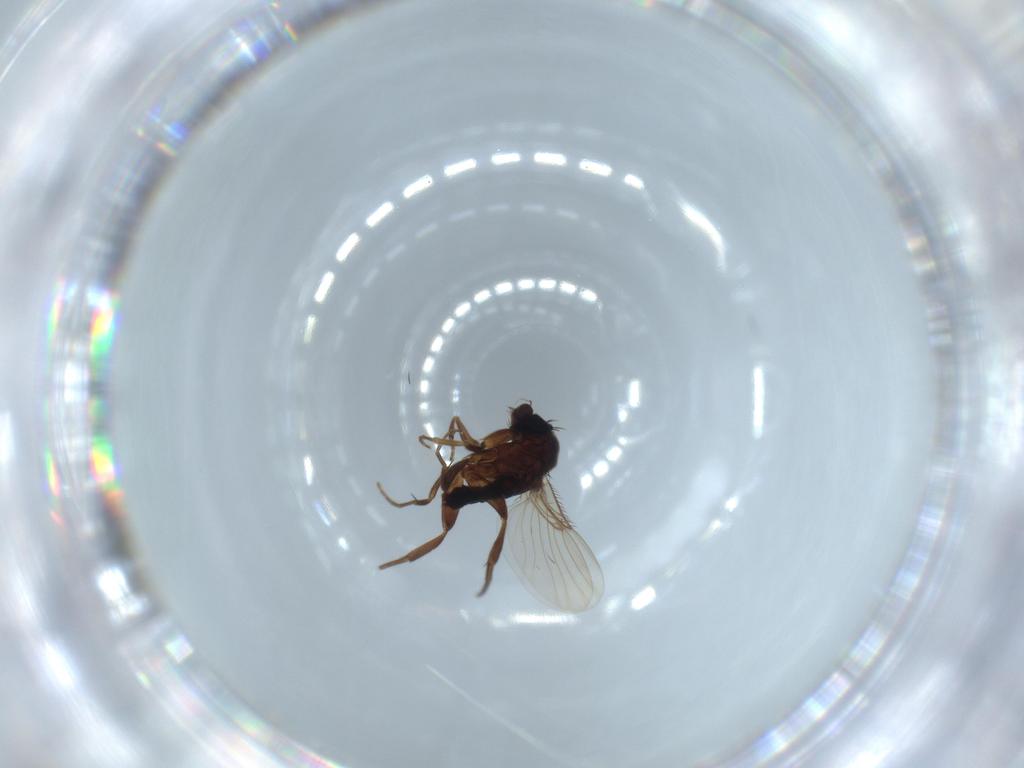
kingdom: Animalia
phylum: Arthropoda
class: Insecta
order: Diptera
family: Phoridae
